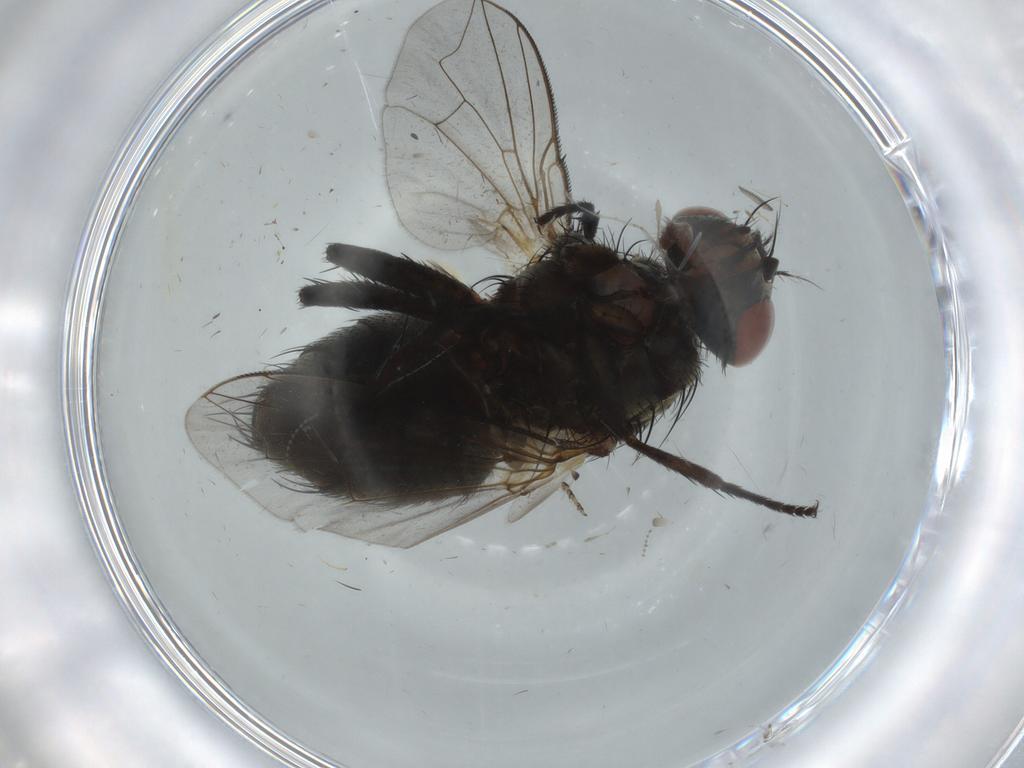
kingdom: Animalia
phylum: Arthropoda
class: Insecta
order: Diptera
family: Sarcophagidae
